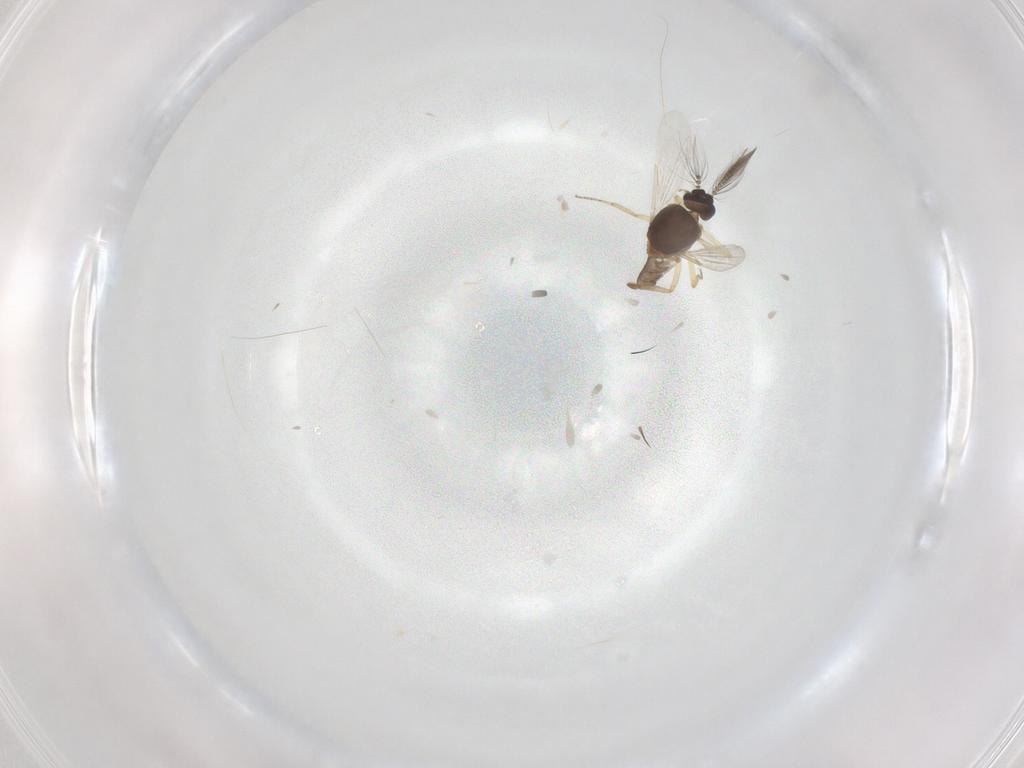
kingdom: Animalia
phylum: Arthropoda
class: Insecta
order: Diptera
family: Ceratopogonidae
